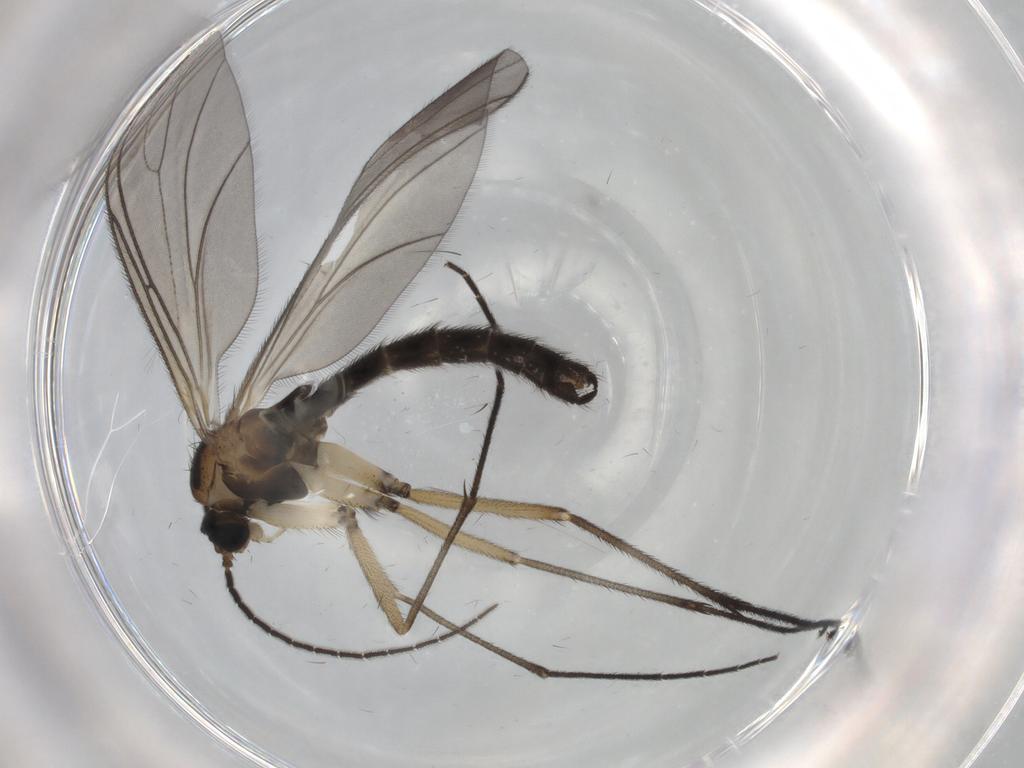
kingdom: Animalia
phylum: Arthropoda
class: Insecta
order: Diptera
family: Sciaridae
